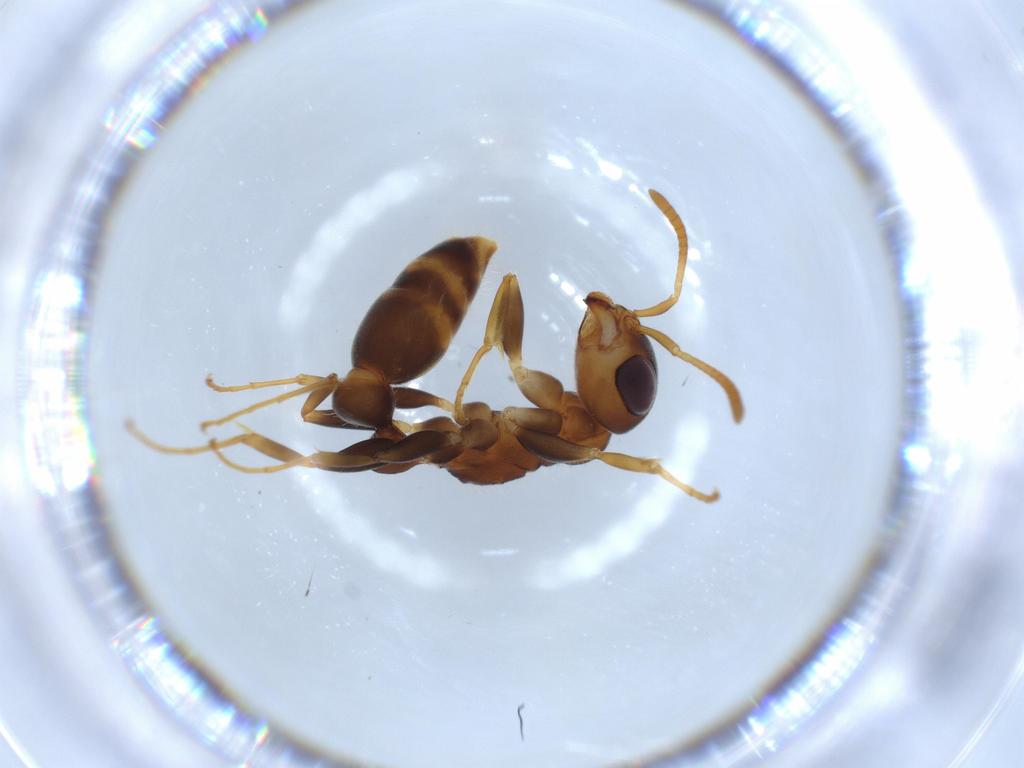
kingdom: Animalia
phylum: Arthropoda
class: Insecta
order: Hymenoptera
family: Formicidae
